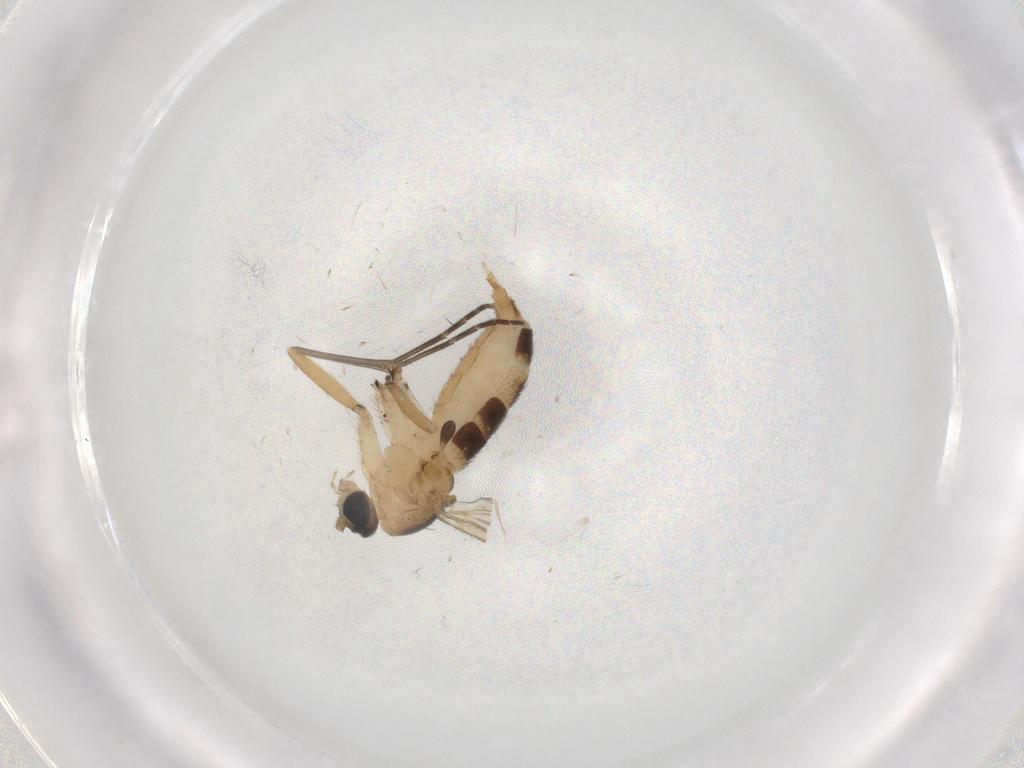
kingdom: Animalia
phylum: Arthropoda
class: Insecta
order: Diptera
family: Sciaridae
